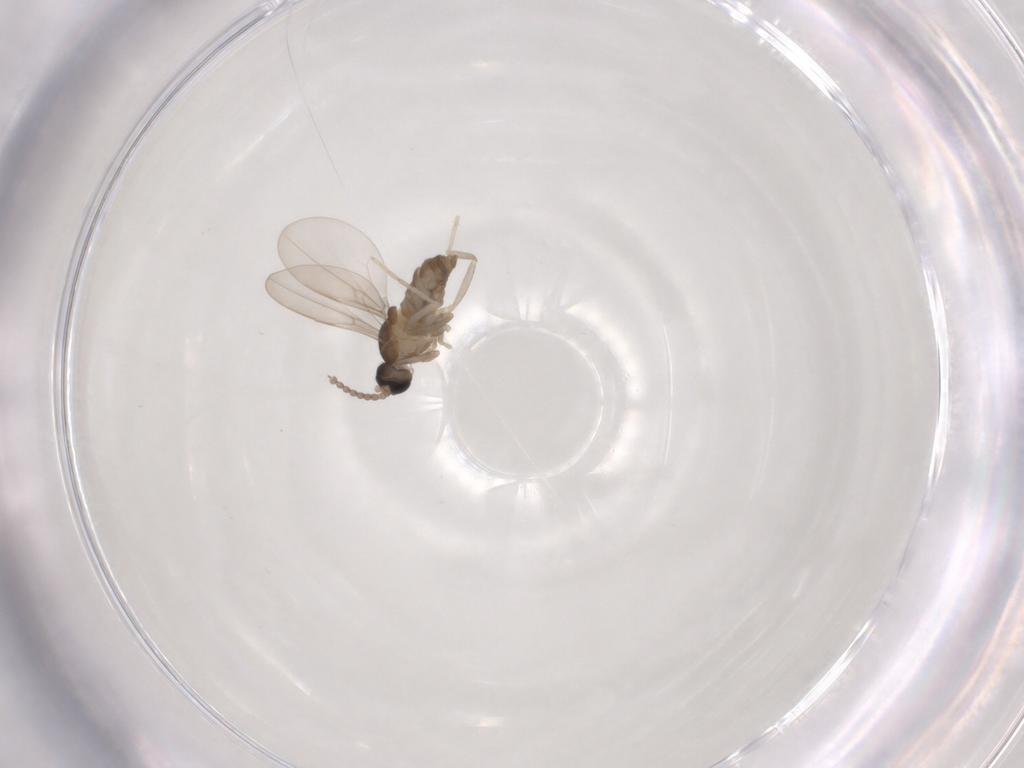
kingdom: Animalia
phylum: Arthropoda
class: Insecta
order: Diptera
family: Cecidomyiidae
